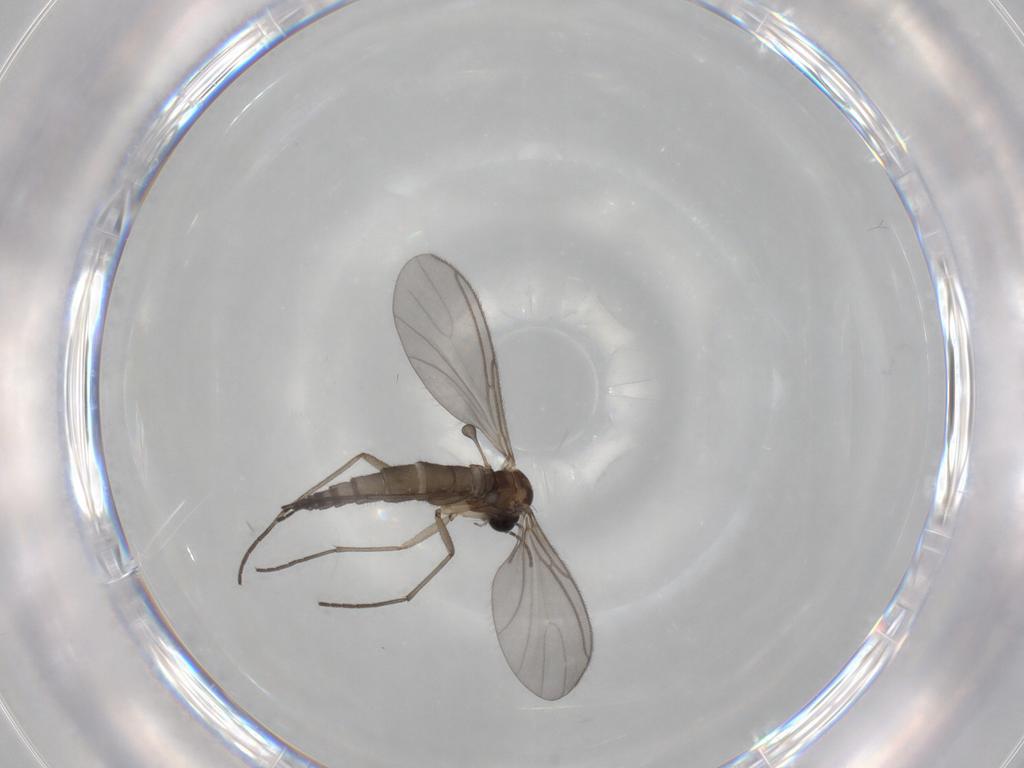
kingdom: Animalia
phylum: Arthropoda
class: Insecta
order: Diptera
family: Sciaridae
